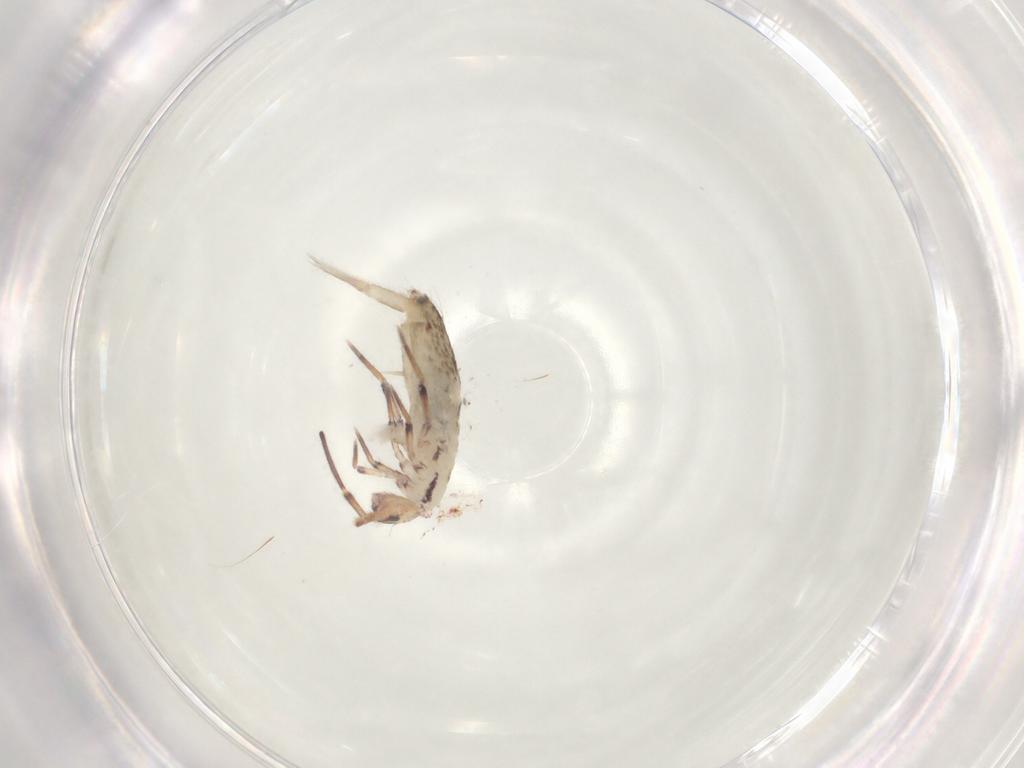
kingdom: Animalia
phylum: Arthropoda
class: Collembola
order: Entomobryomorpha
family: Entomobryidae
